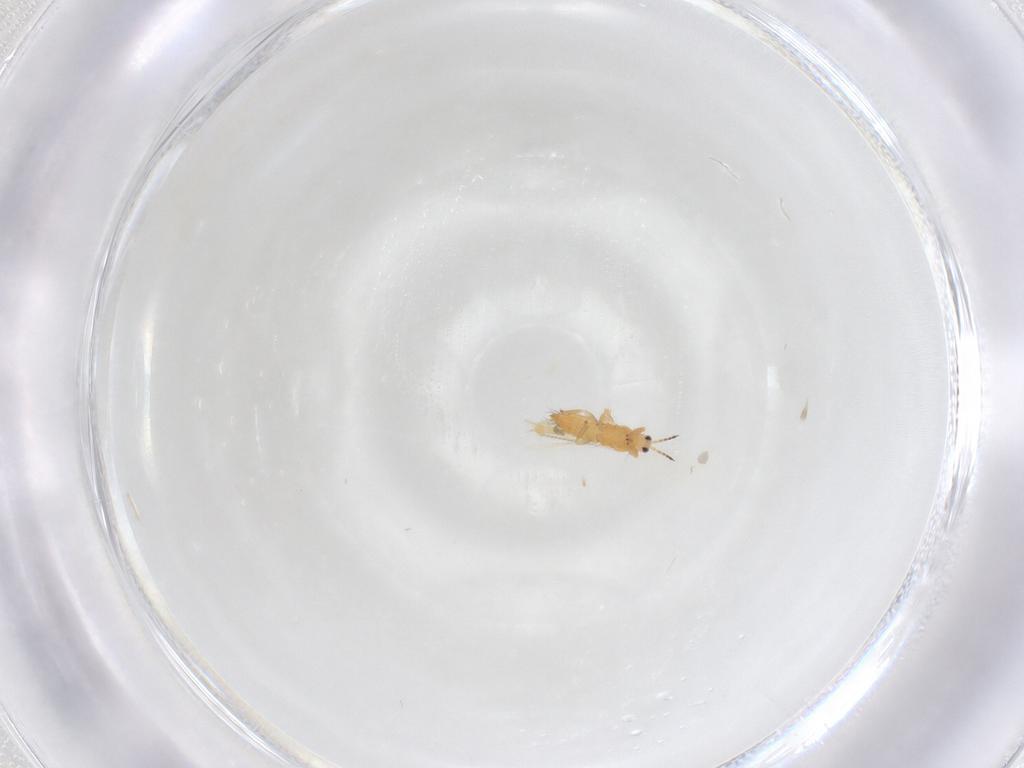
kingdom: Animalia
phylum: Arthropoda
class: Insecta
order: Thysanoptera
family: Thripidae
